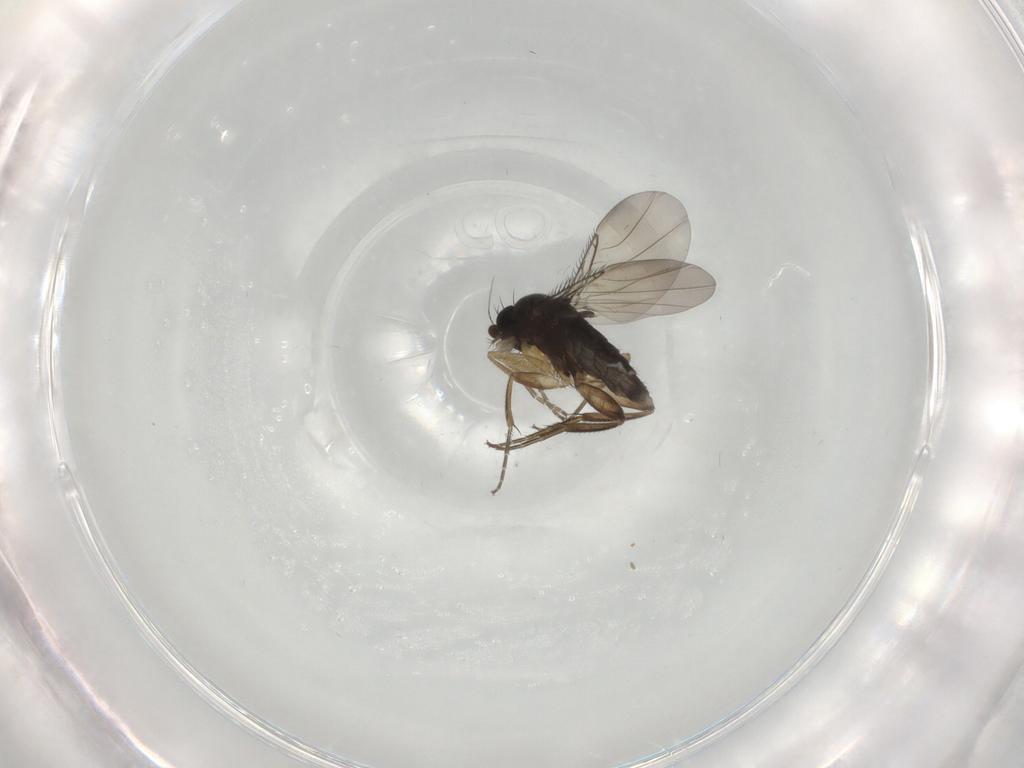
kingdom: Animalia
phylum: Arthropoda
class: Insecta
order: Diptera
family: Phoridae
